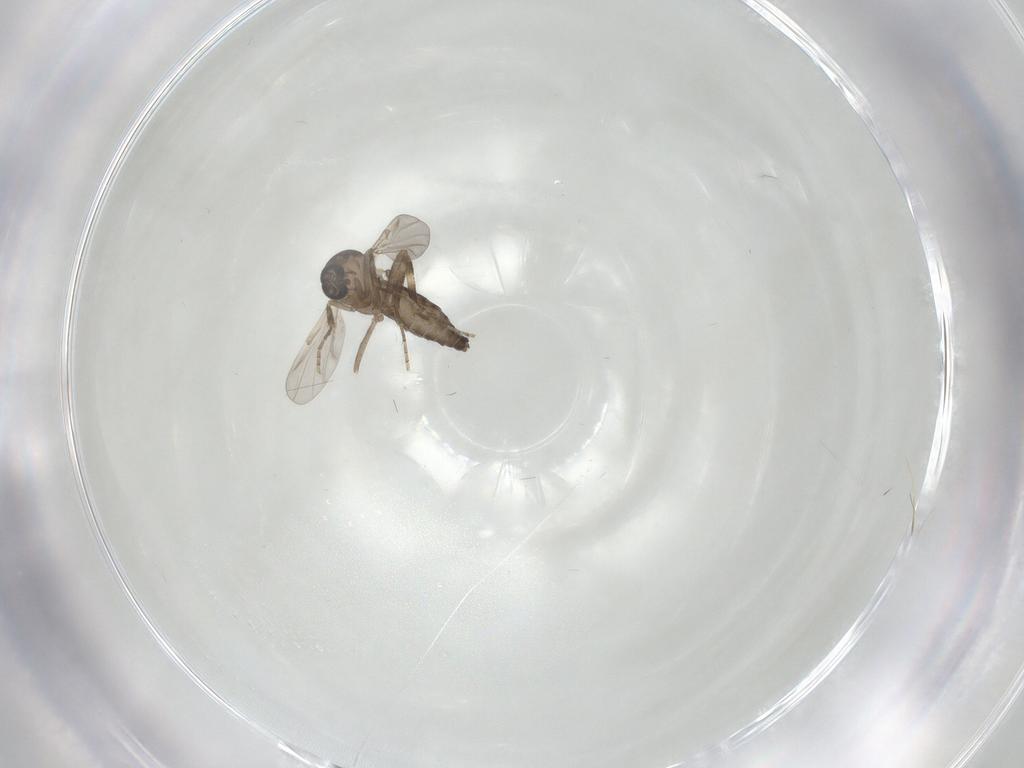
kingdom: Animalia
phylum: Arthropoda
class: Insecta
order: Diptera
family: Ceratopogonidae
